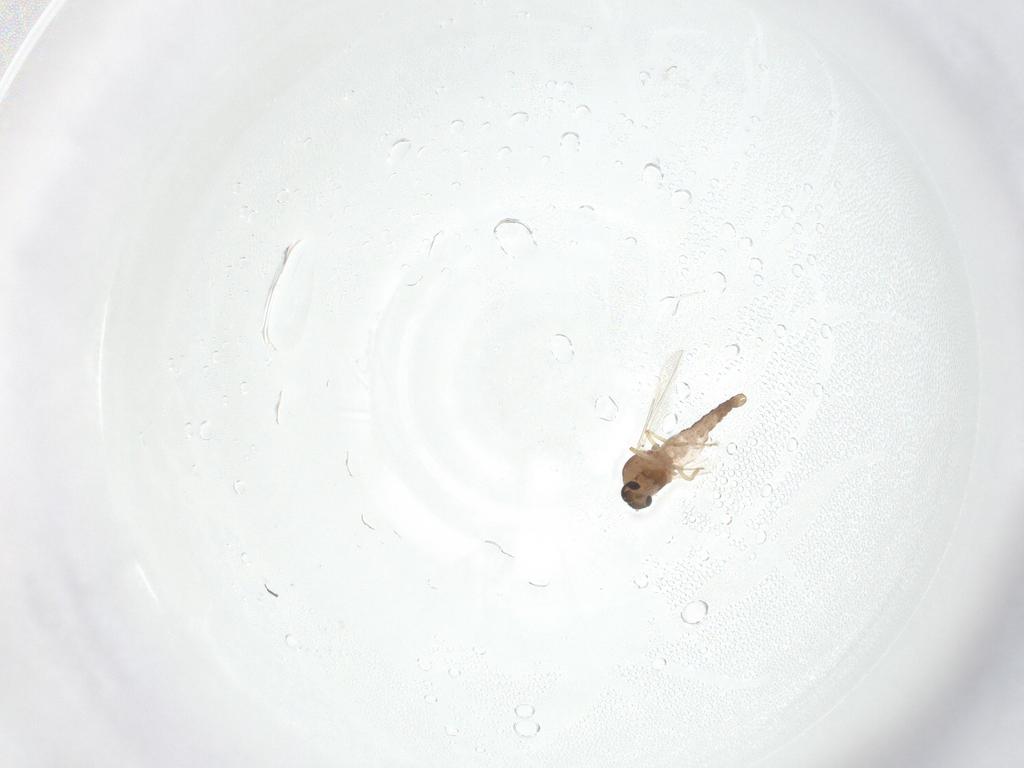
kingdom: Animalia
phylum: Arthropoda
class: Insecta
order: Diptera
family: Ceratopogonidae
